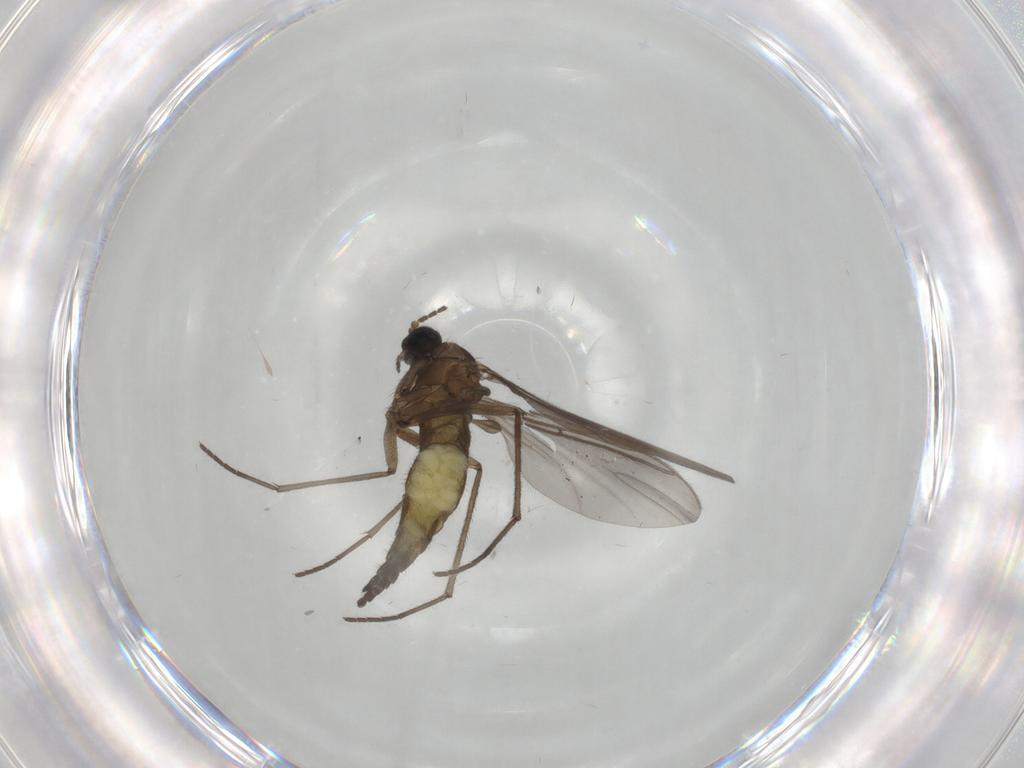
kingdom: Animalia
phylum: Arthropoda
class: Insecta
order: Diptera
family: Sciaridae
